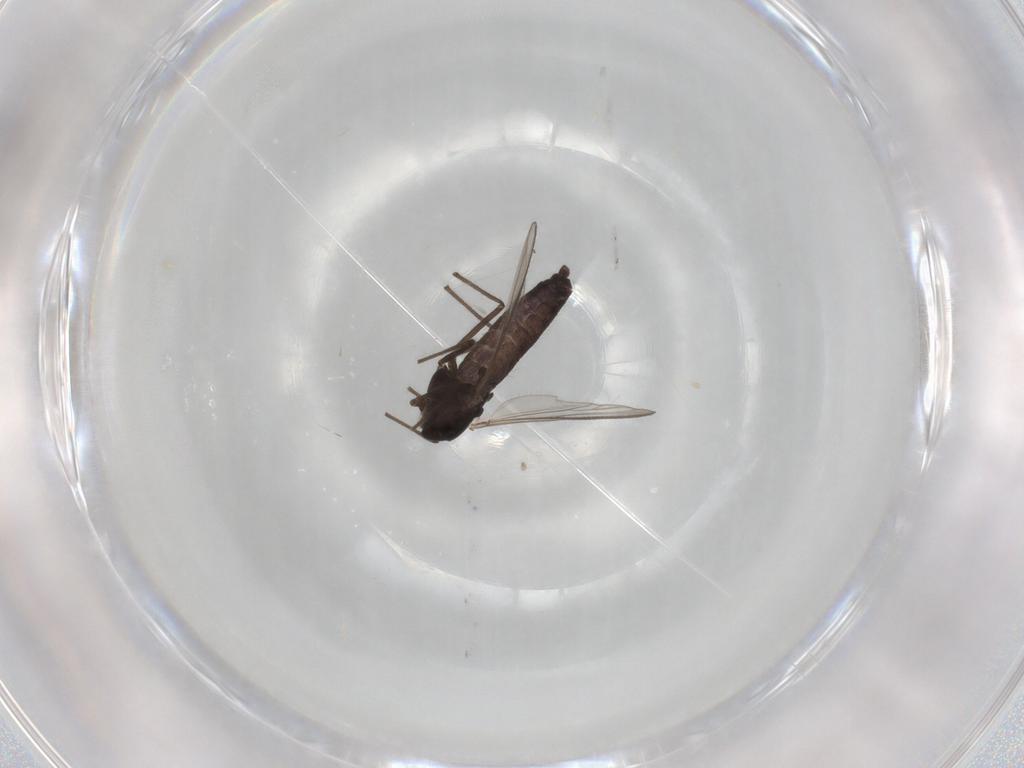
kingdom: Animalia
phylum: Arthropoda
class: Insecta
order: Diptera
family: Chironomidae
